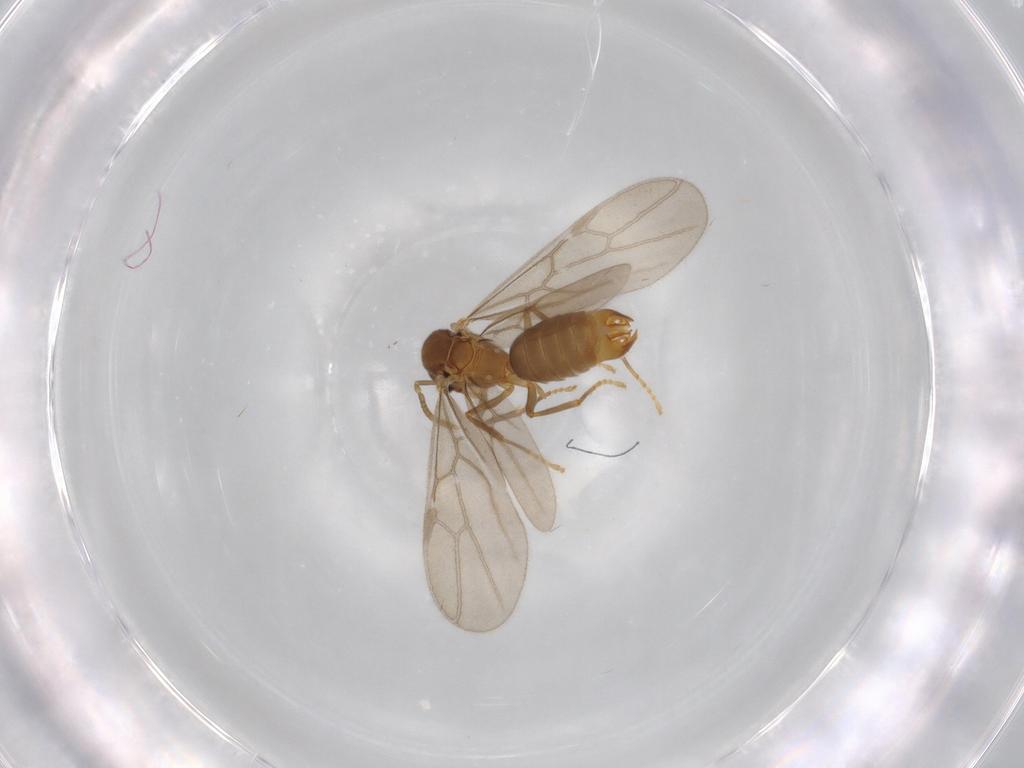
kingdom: Animalia
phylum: Arthropoda
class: Insecta
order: Hymenoptera
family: Formicidae
